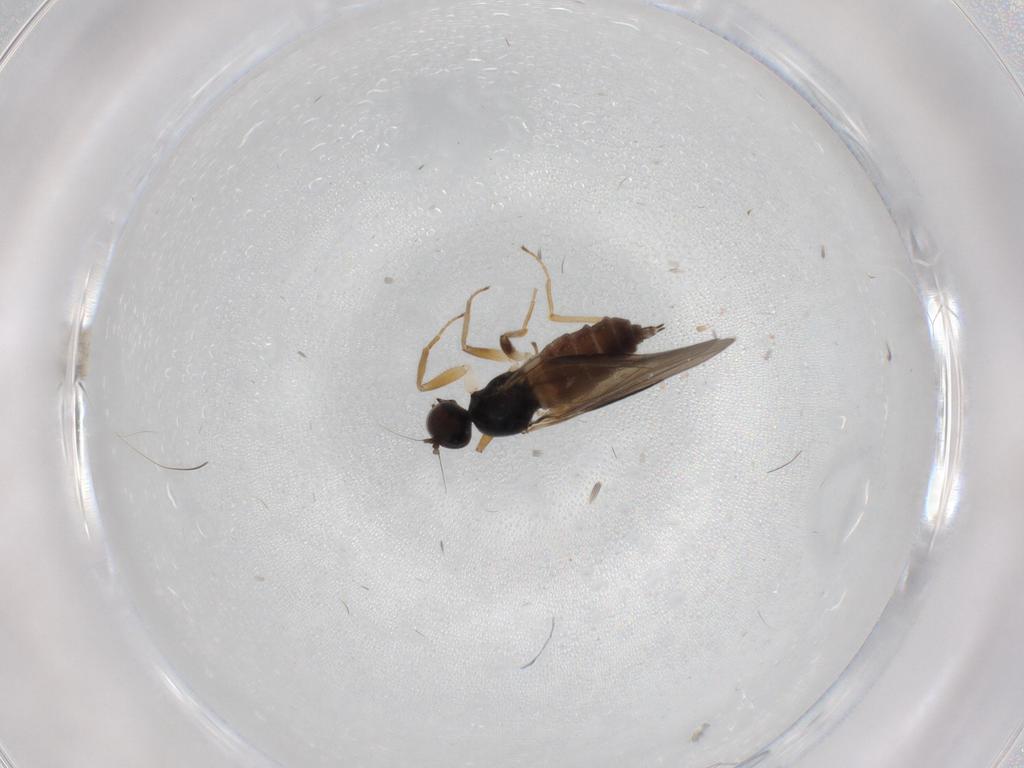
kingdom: Animalia
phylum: Arthropoda
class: Insecta
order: Diptera
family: Hybotidae
